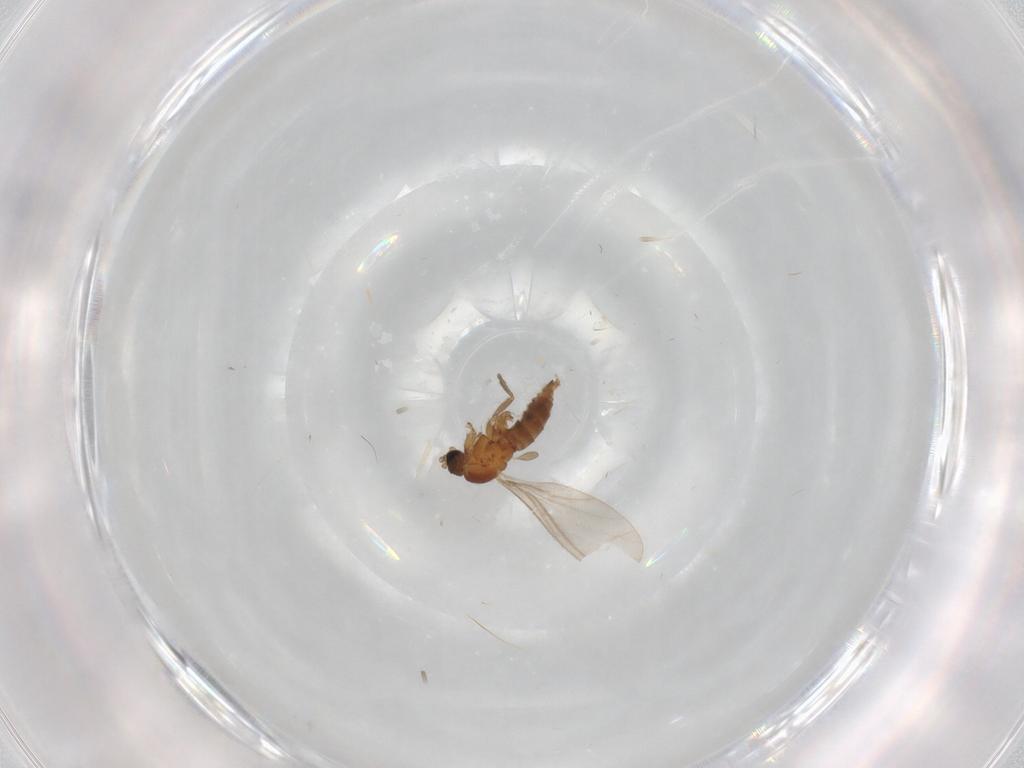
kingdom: Animalia
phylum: Arthropoda
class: Insecta
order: Diptera
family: Sciaridae
